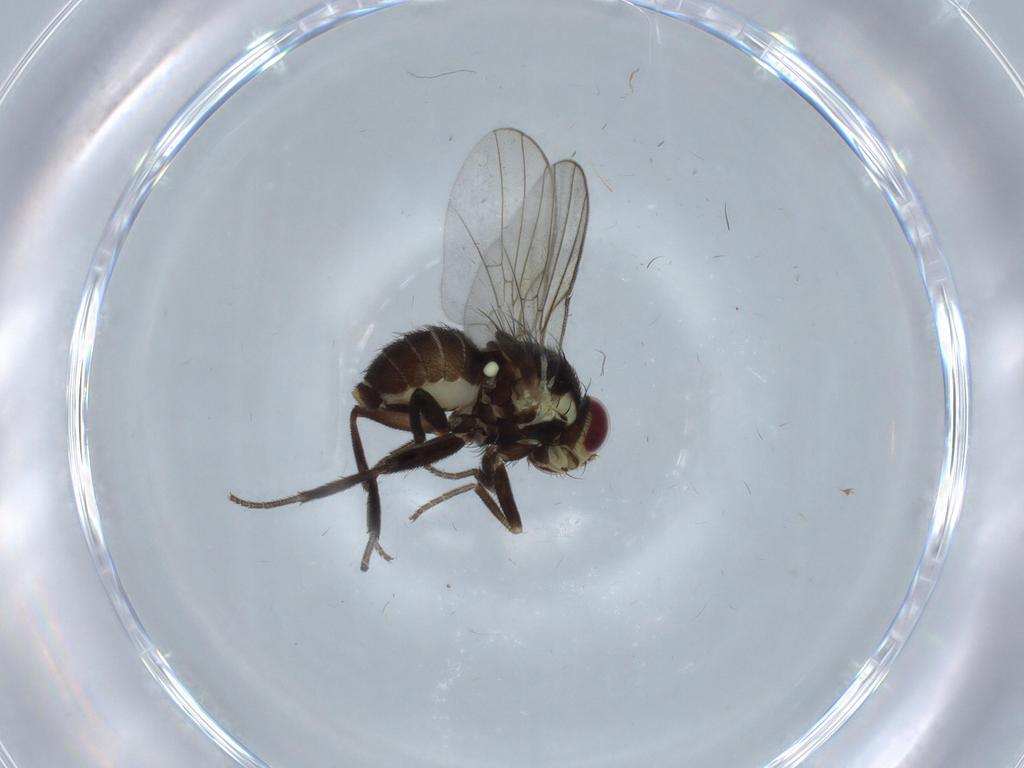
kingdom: Animalia
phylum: Arthropoda
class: Insecta
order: Diptera
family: Agromyzidae
